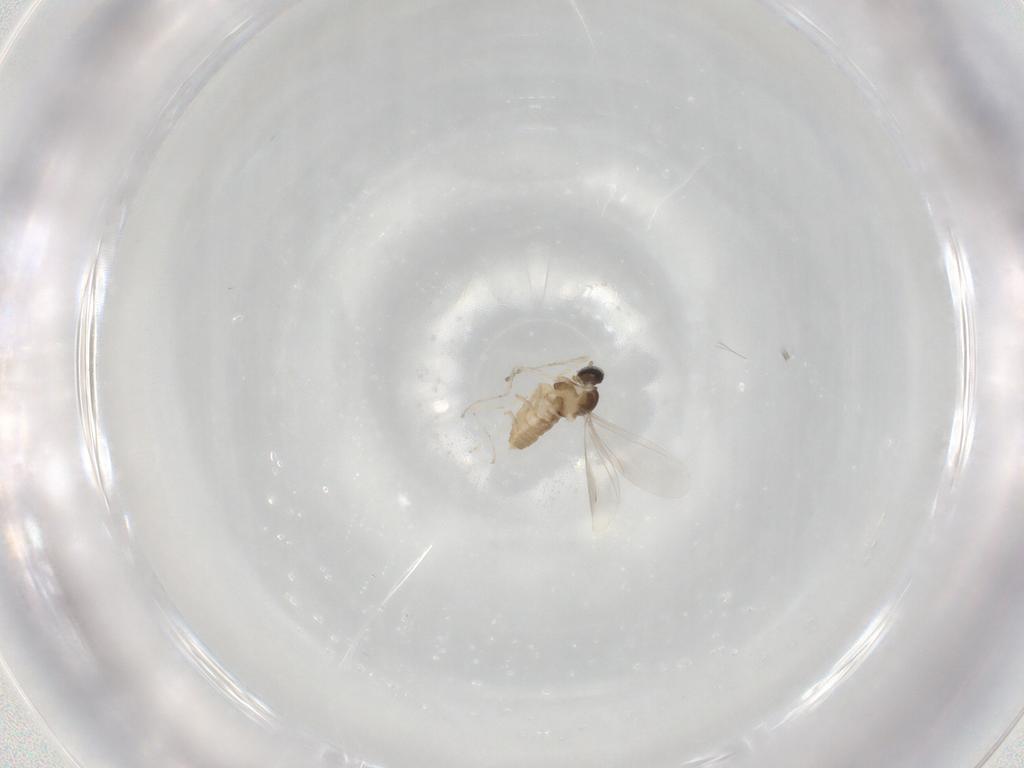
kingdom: Animalia
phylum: Arthropoda
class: Insecta
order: Diptera
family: Cecidomyiidae
